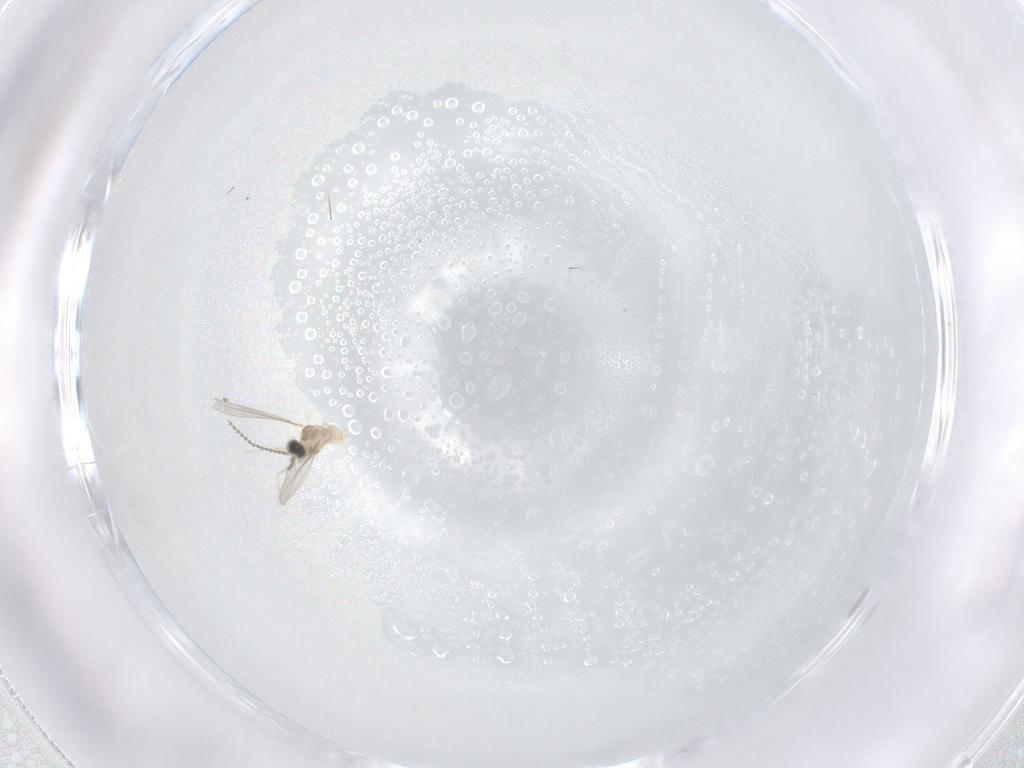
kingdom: Animalia
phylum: Arthropoda
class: Insecta
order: Diptera
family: Cecidomyiidae
